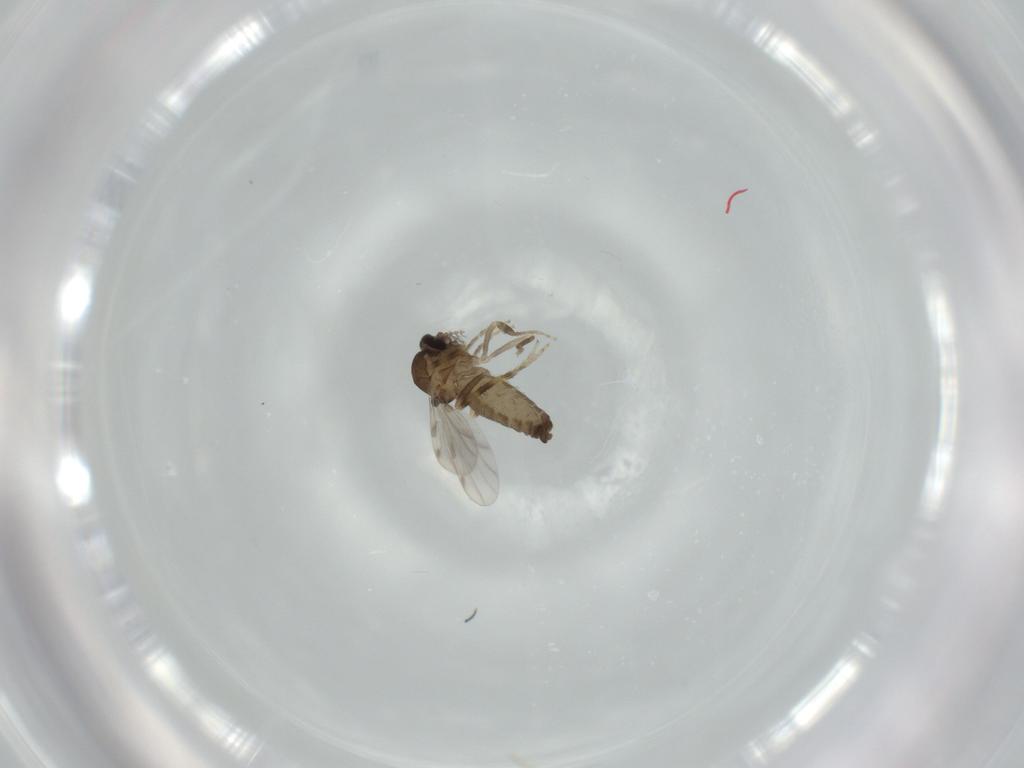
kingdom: Animalia
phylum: Arthropoda
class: Insecta
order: Diptera
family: Ceratopogonidae
